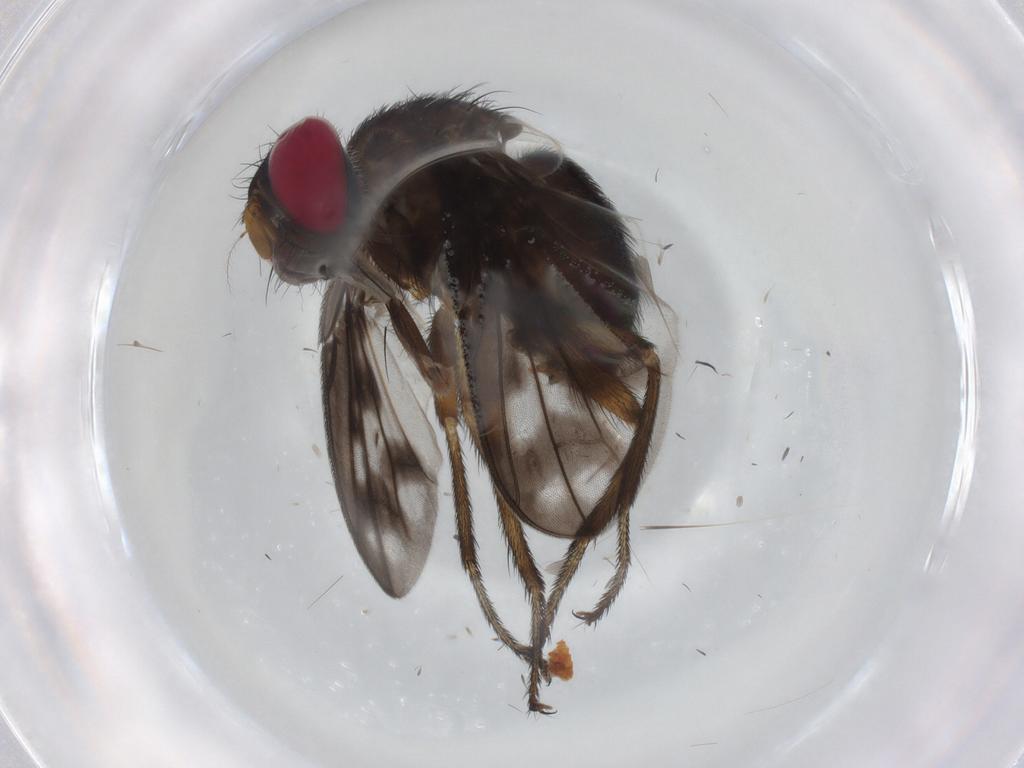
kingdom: Animalia
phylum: Arthropoda
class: Insecta
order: Diptera
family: Tachinidae
